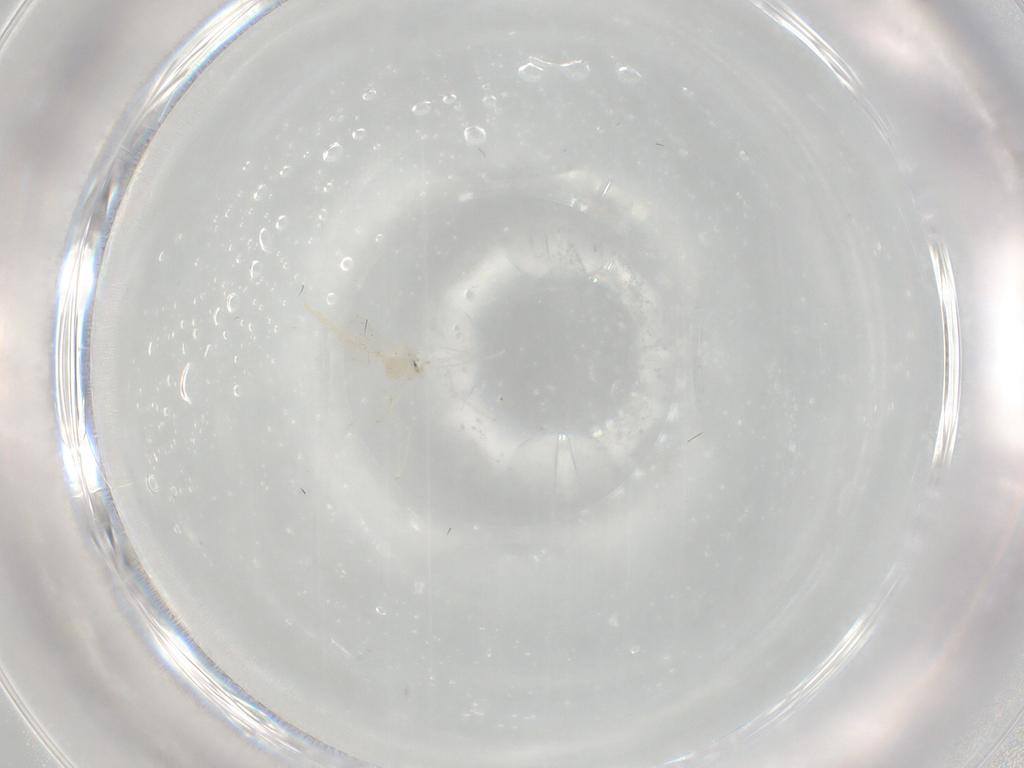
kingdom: Animalia
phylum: Arthropoda
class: Insecta
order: Diptera
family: Cecidomyiidae
